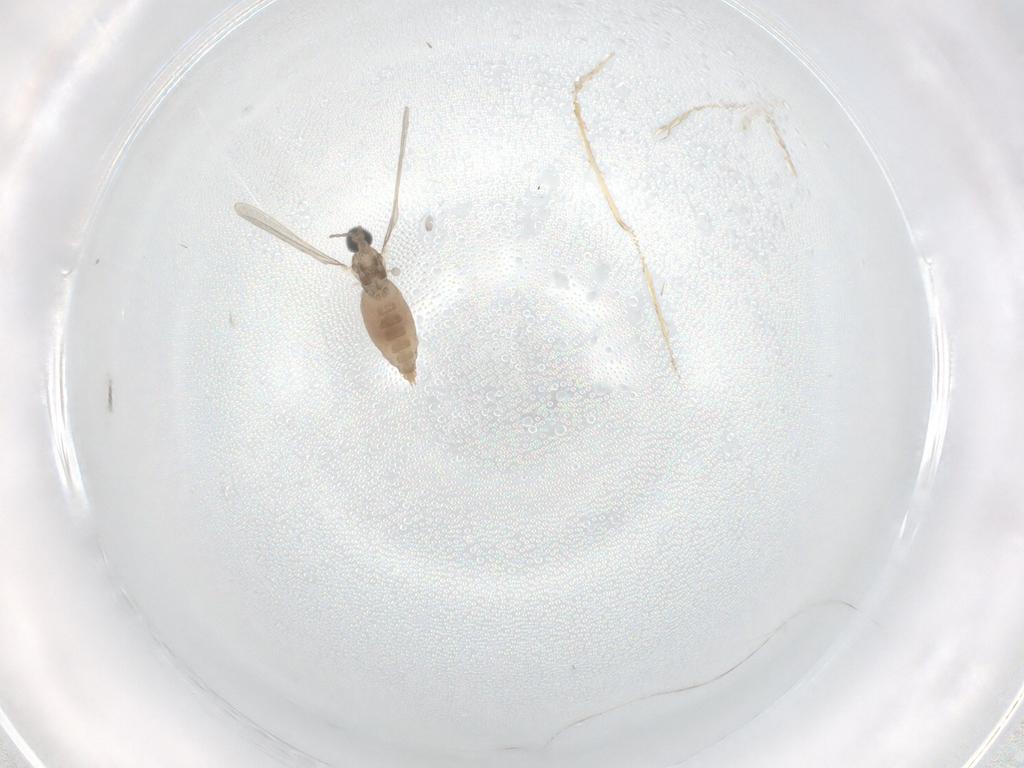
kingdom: Animalia
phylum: Arthropoda
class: Insecta
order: Diptera
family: Cecidomyiidae
